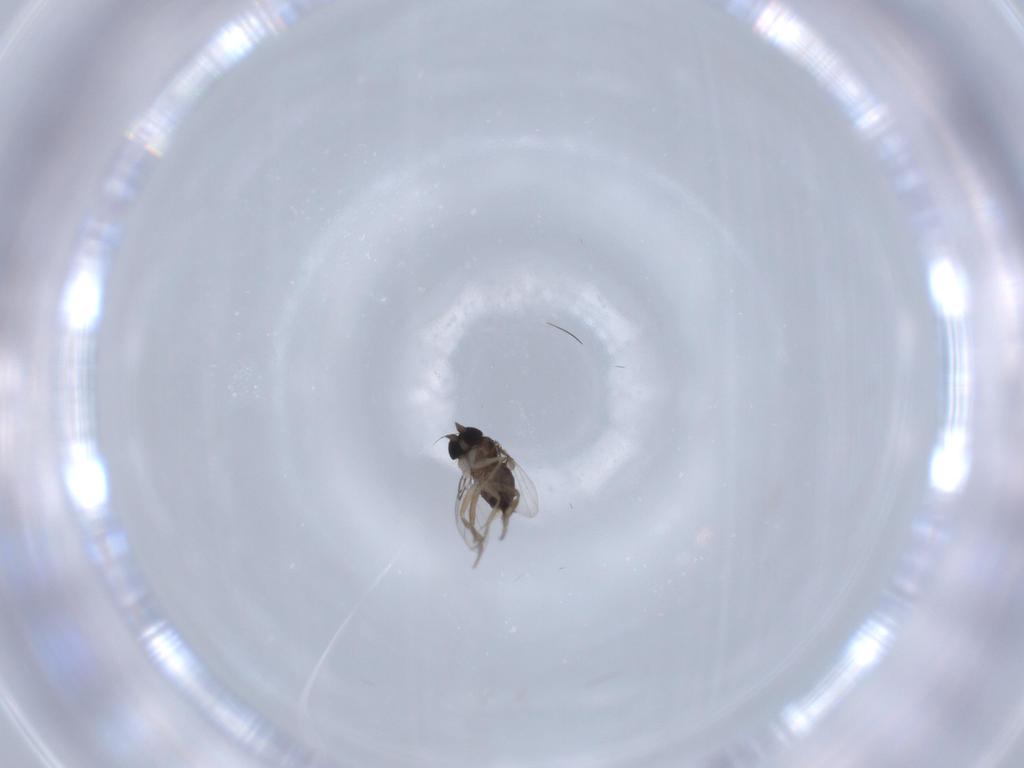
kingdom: Animalia
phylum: Arthropoda
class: Insecta
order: Diptera
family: Phoridae
